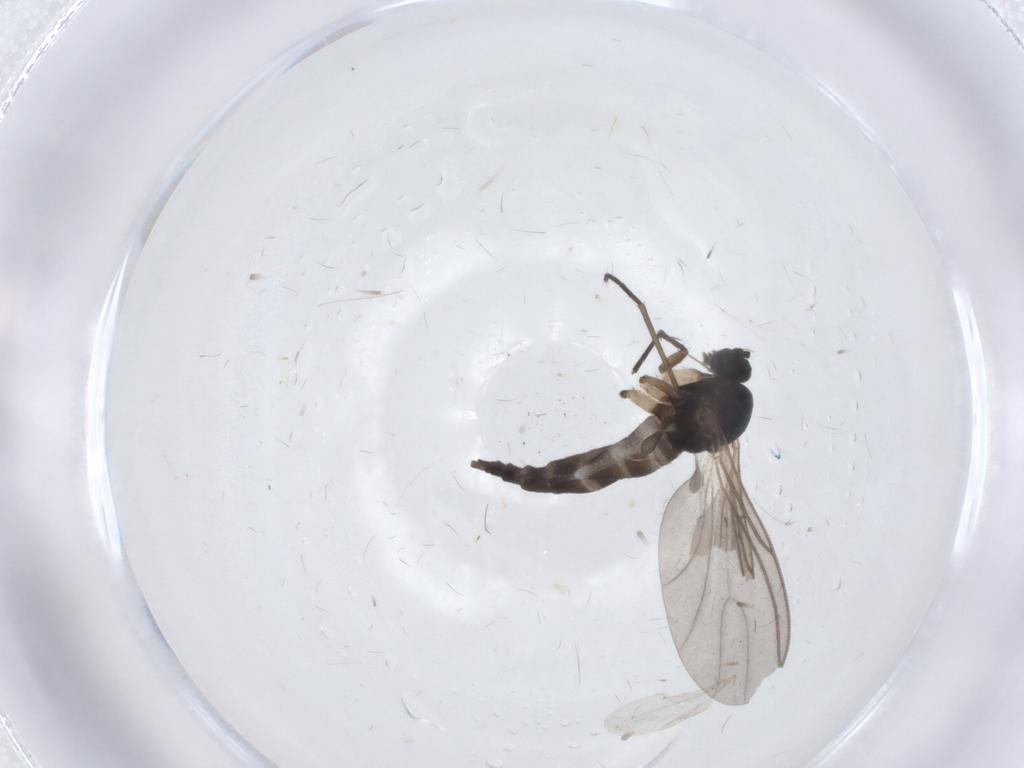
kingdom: Animalia
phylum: Arthropoda
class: Insecta
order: Diptera
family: Sciaridae
